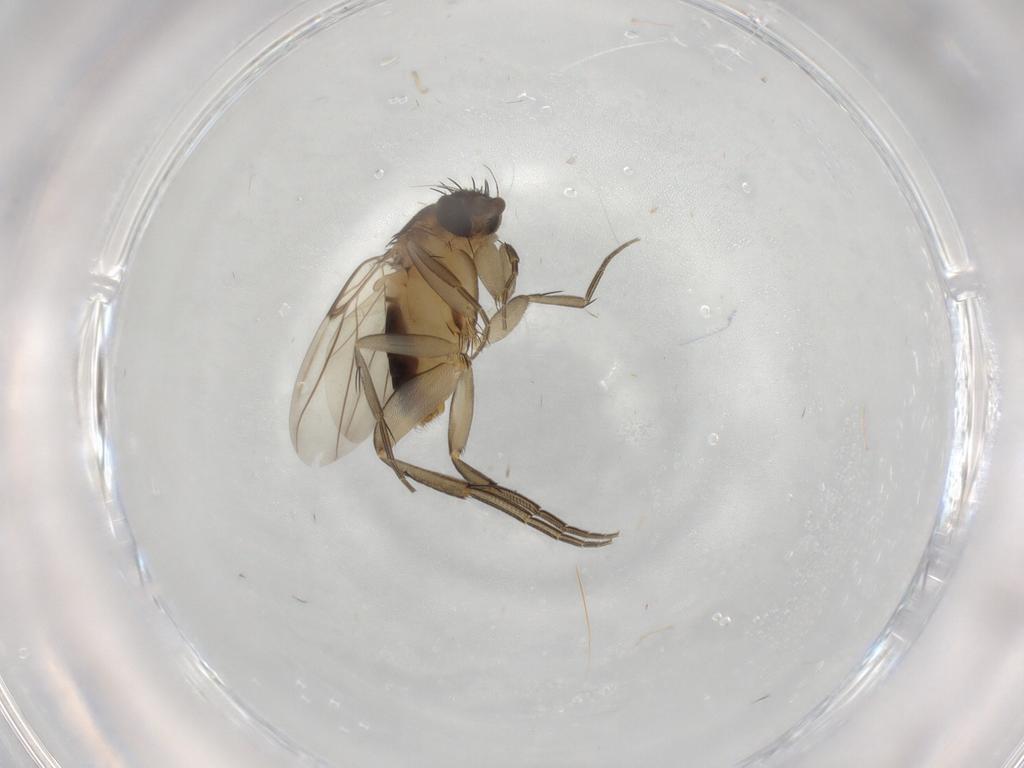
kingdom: Animalia
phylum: Arthropoda
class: Insecta
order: Diptera
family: Phoridae
